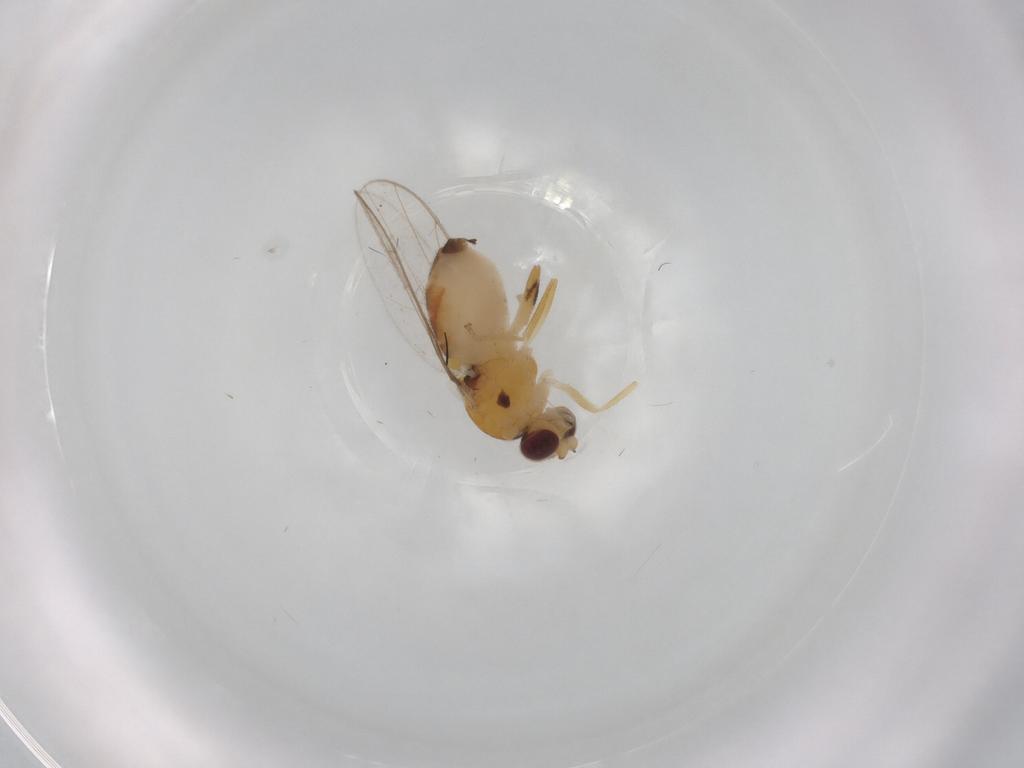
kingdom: Animalia
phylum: Arthropoda
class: Insecta
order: Diptera
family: Chloropidae
